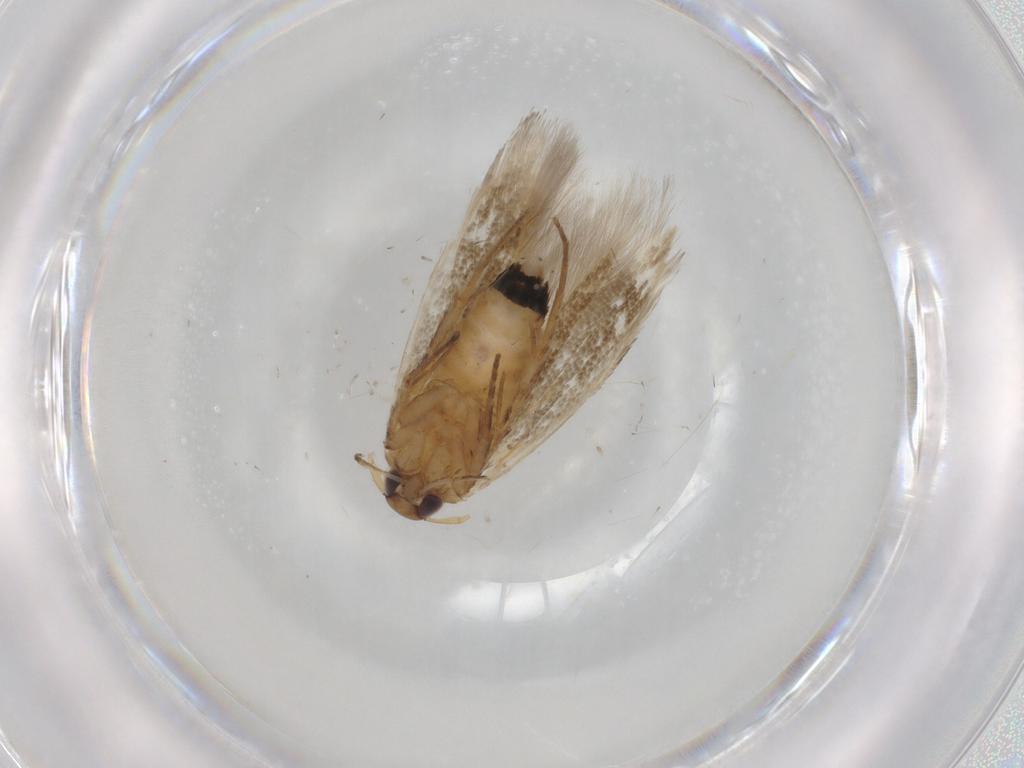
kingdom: Animalia
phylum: Arthropoda
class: Insecta
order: Lepidoptera
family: Cosmopterigidae
